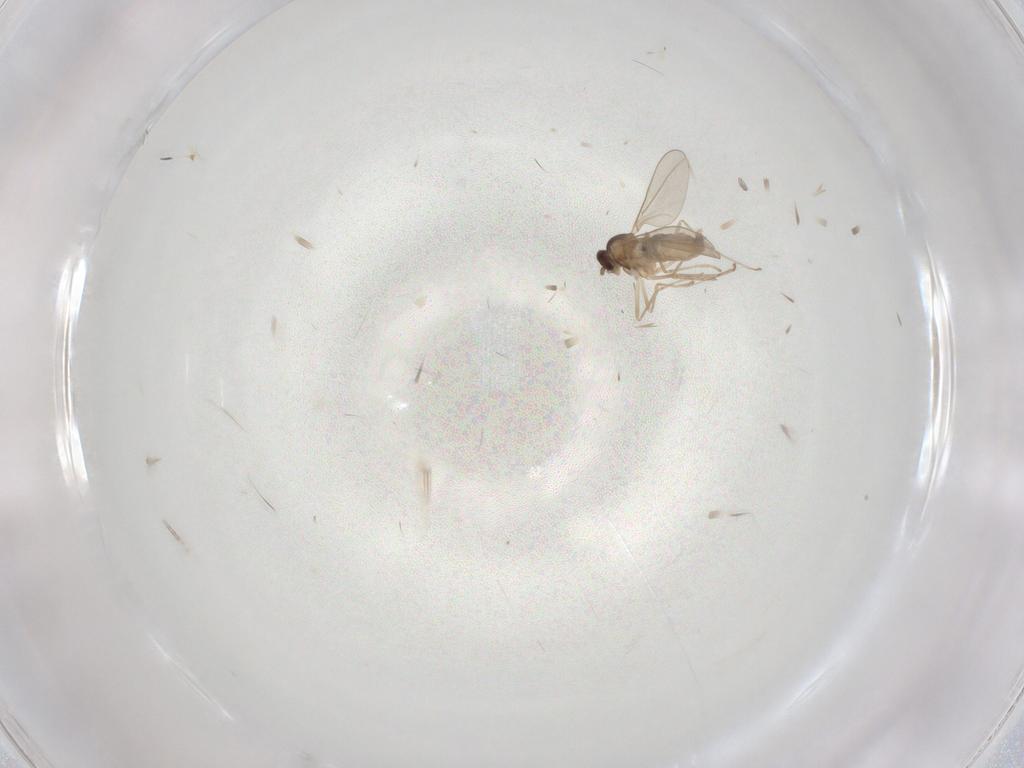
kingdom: Animalia
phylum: Arthropoda
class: Insecta
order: Diptera
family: Cecidomyiidae
